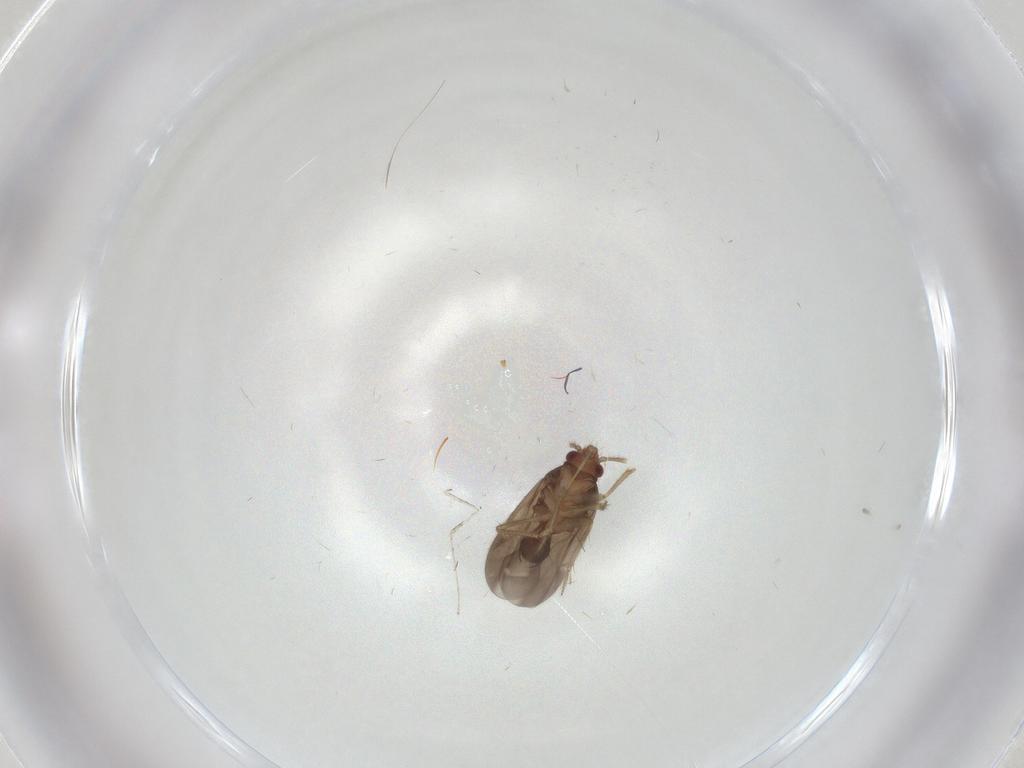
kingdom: Animalia
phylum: Arthropoda
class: Insecta
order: Hemiptera
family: Ceratocombidae
